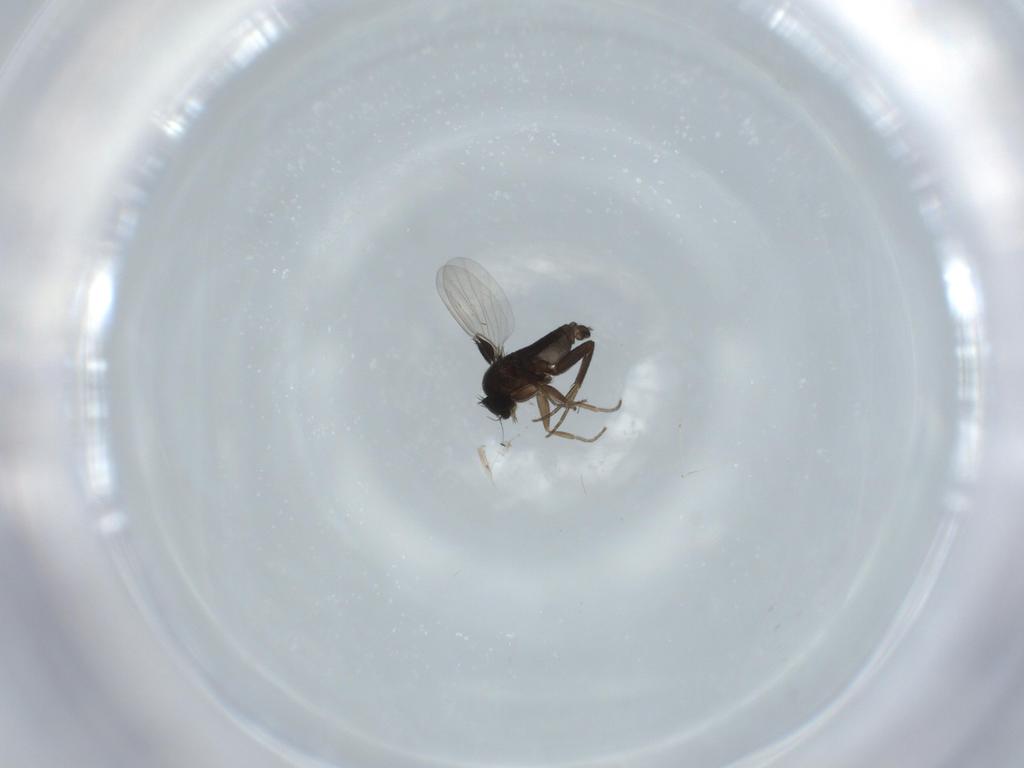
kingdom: Animalia
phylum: Arthropoda
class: Insecta
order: Diptera
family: Phoridae
